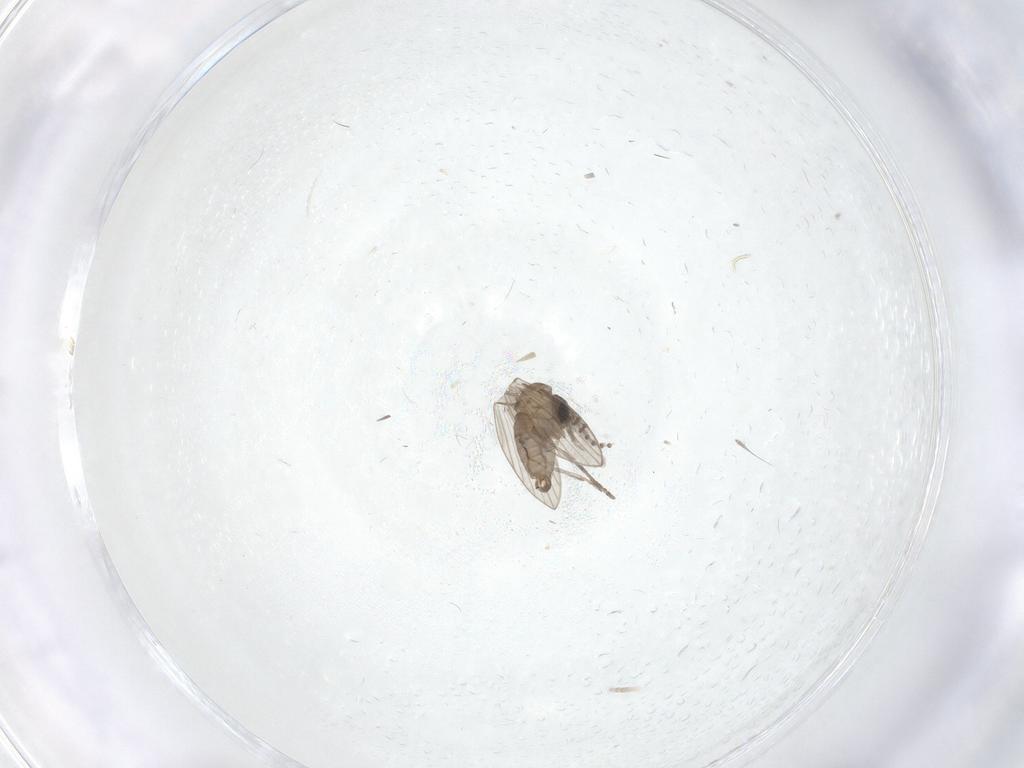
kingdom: Animalia
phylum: Arthropoda
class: Insecta
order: Diptera
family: Psychodidae
